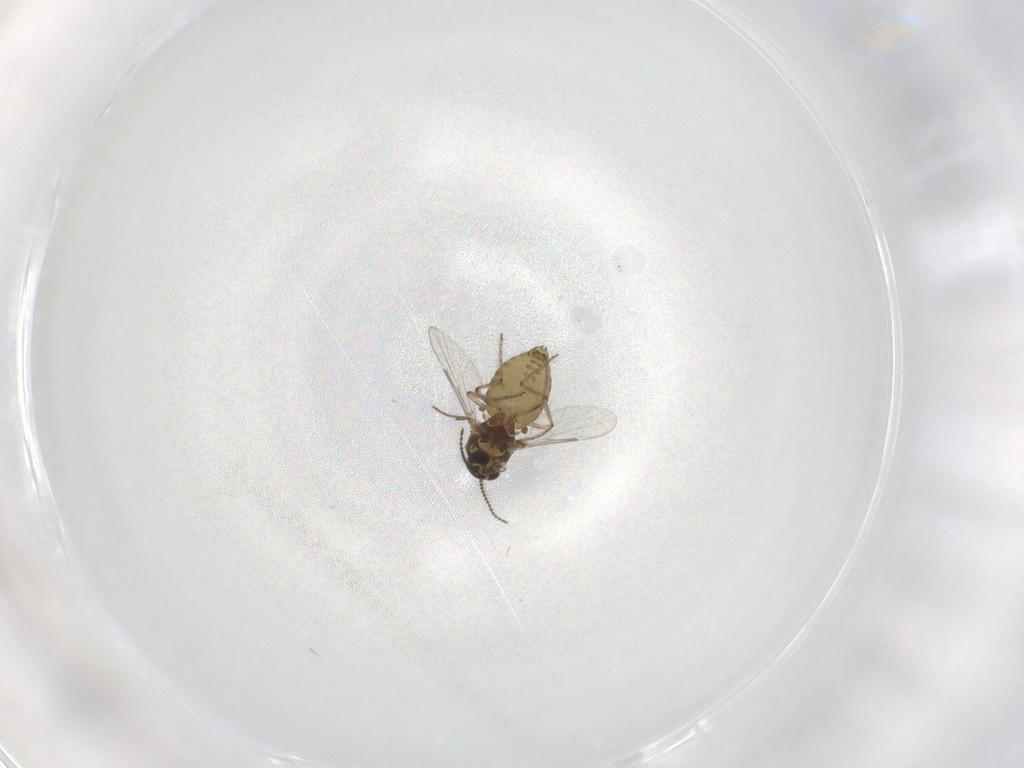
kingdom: Animalia
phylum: Arthropoda
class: Insecta
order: Diptera
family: Ceratopogonidae
